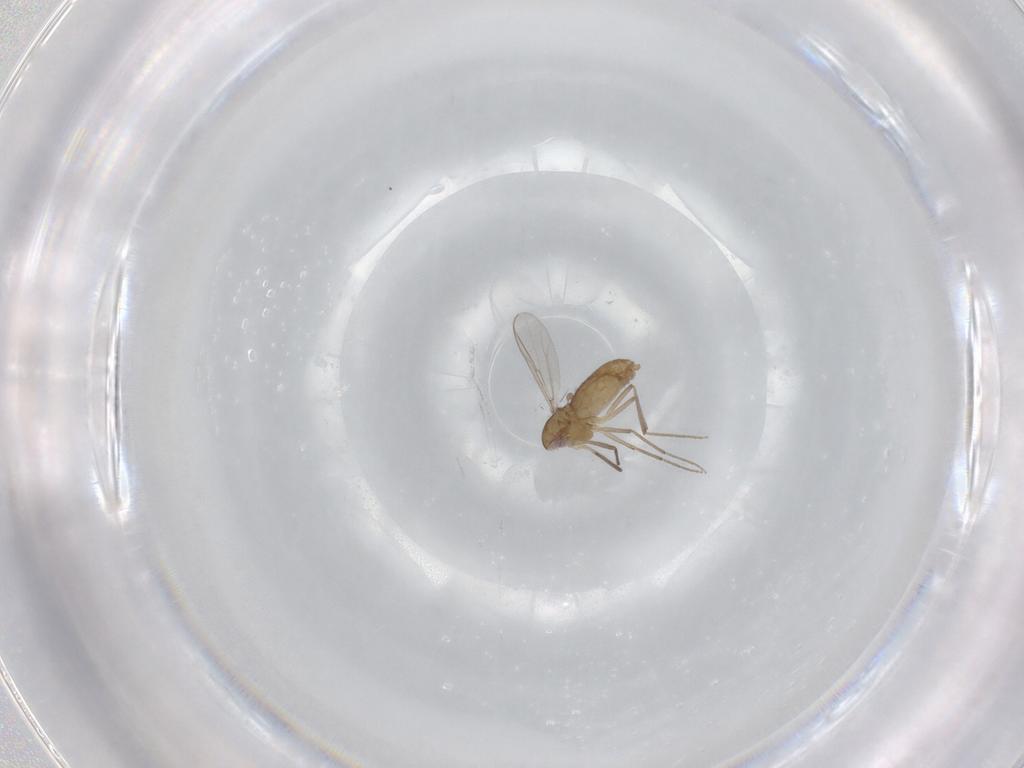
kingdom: Animalia
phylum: Arthropoda
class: Insecta
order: Diptera
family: Chironomidae
